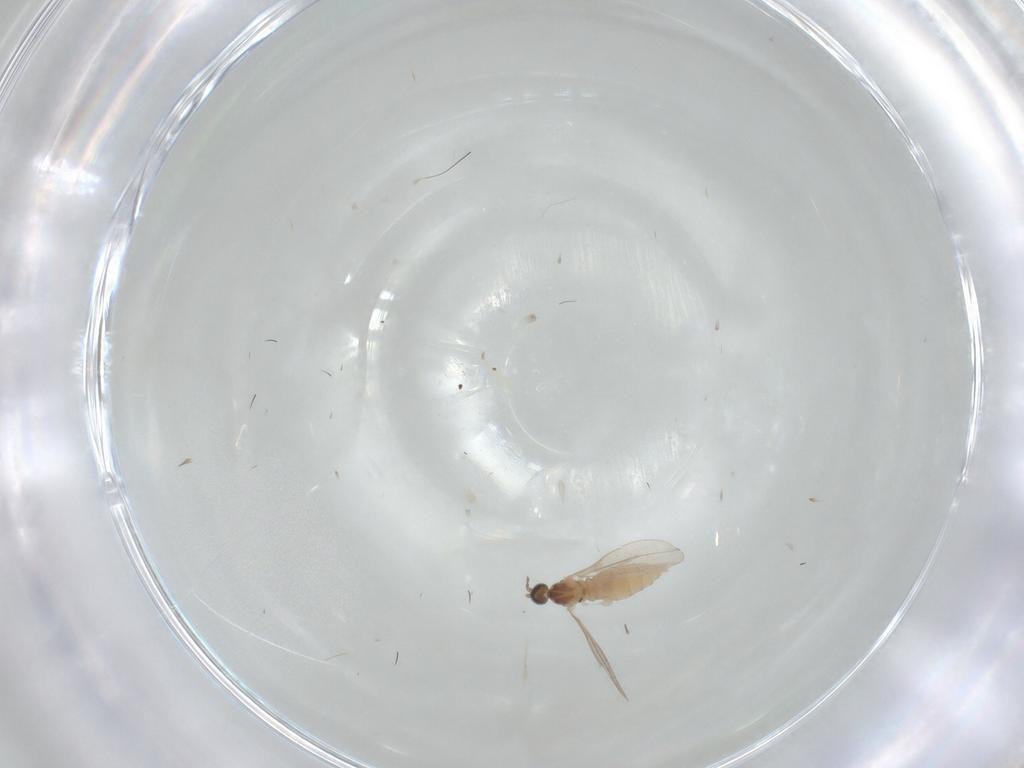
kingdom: Animalia
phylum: Arthropoda
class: Insecta
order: Diptera
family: Cecidomyiidae
